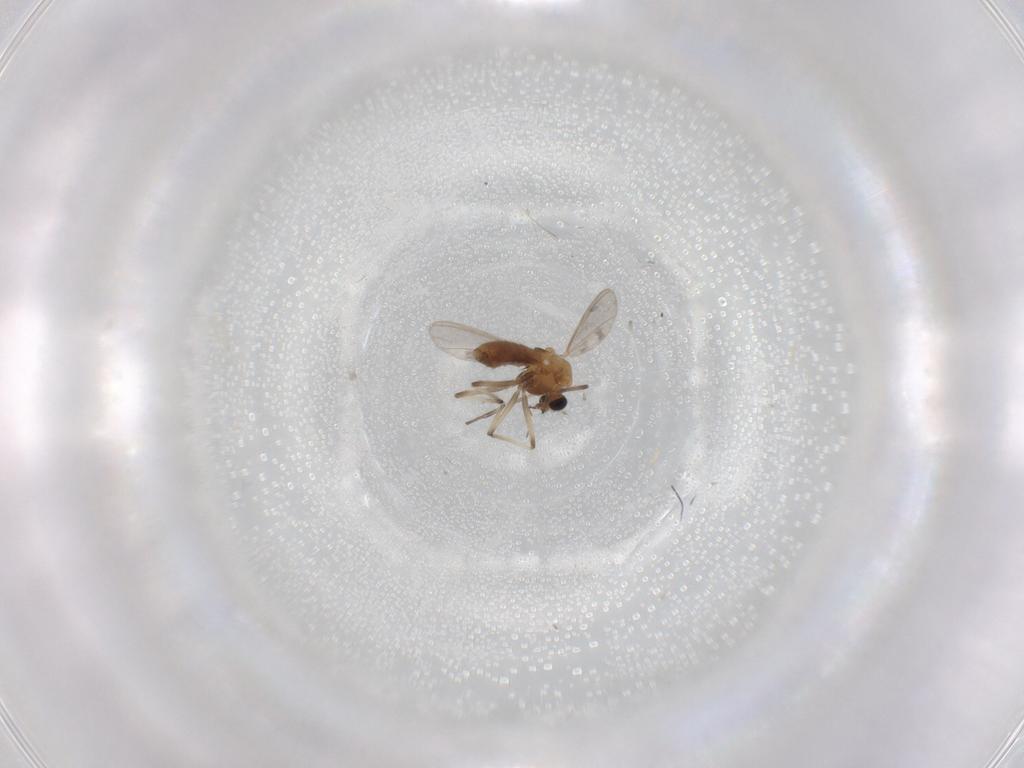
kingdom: Animalia
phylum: Arthropoda
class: Insecta
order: Diptera
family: Chironomidae
